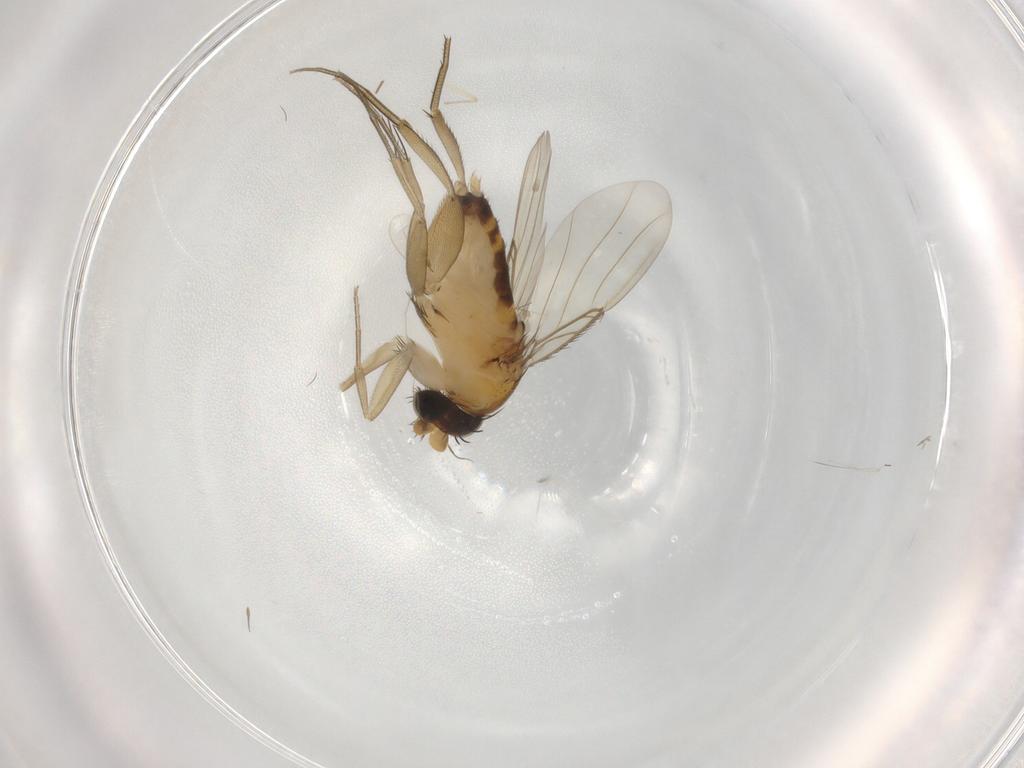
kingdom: Animalia
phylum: Arthropoda
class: Insecta
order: Diptera
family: Phoridae
